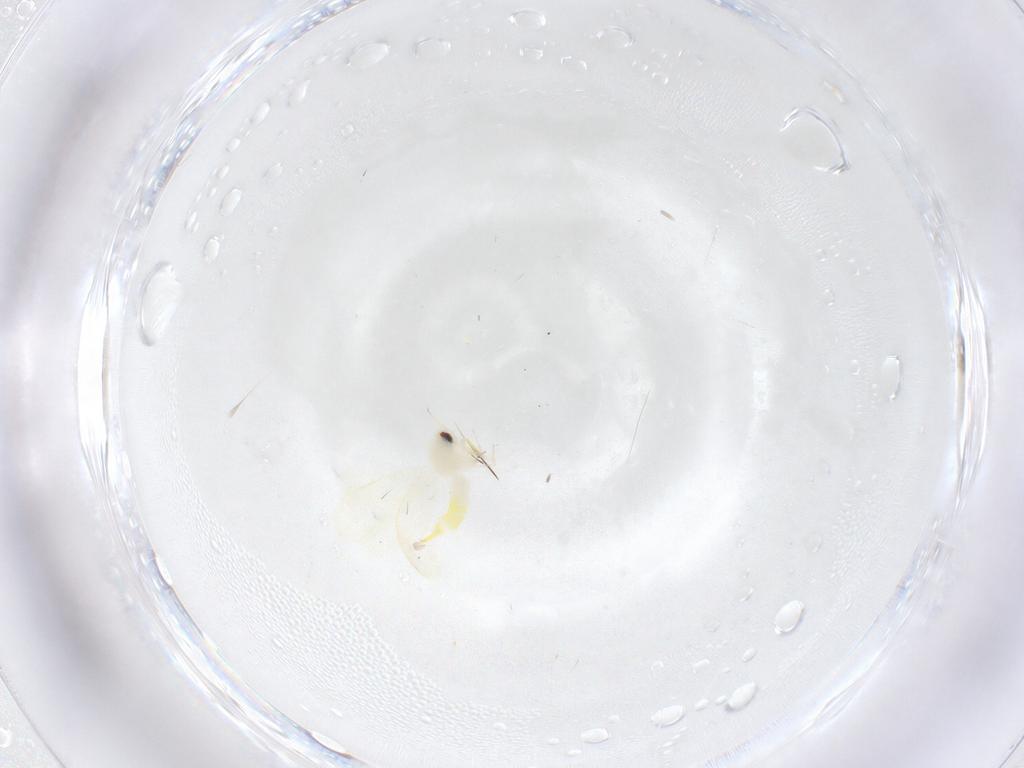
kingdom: Animalia
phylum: Arthropoda
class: Insecta
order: Hemiptera
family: Aleyrodidae
